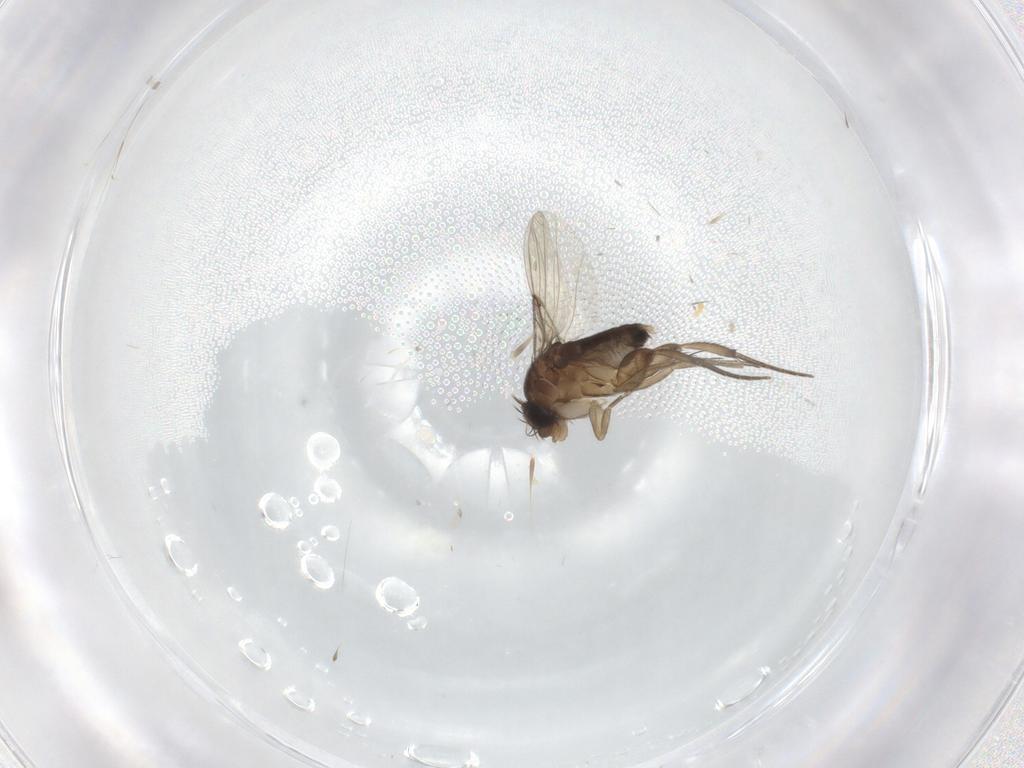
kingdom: Animalia
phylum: Arthropoda
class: Insecta
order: Diptera
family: Phoridae
